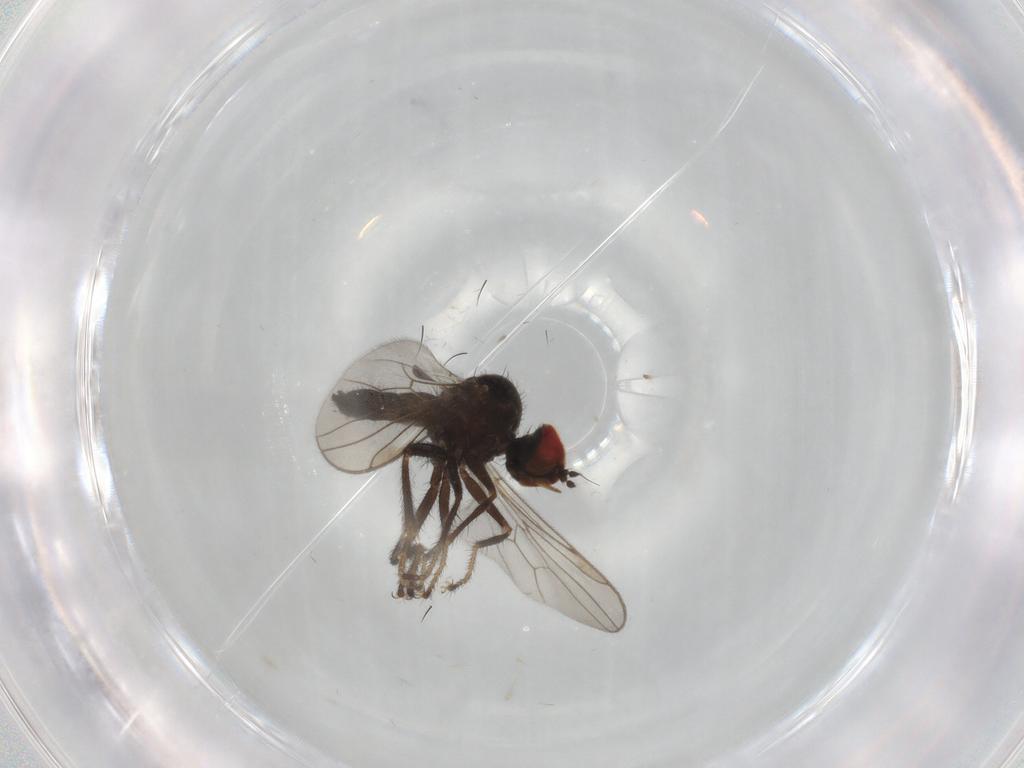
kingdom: Animalia
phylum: Arthropoda
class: Insecta
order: Diptera
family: Hybotidae
